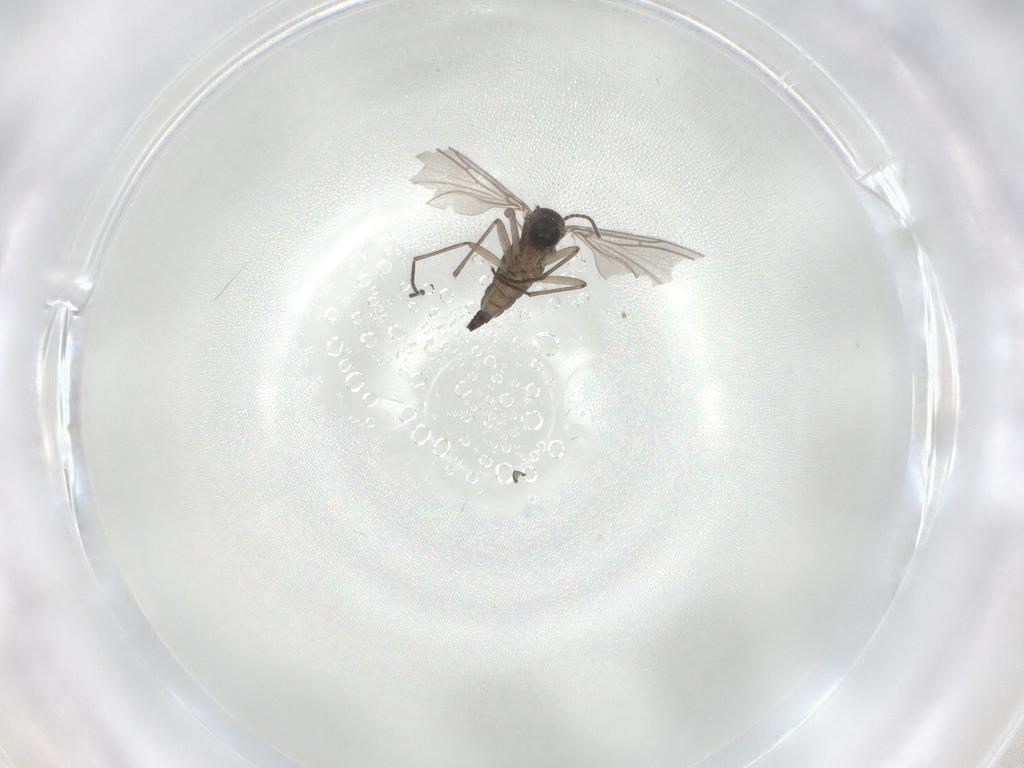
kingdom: Animalia
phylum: Arthropoda
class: Insecta
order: Diptera
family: Sciaridae
